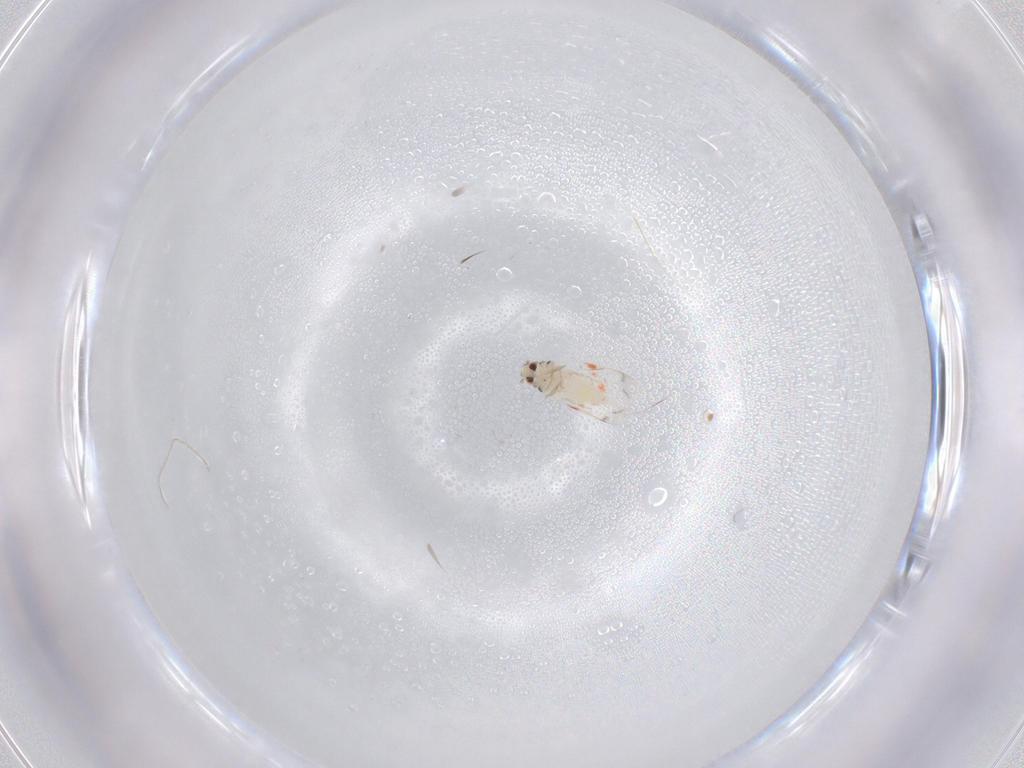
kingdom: Animalia
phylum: Arthropoda
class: Insecta
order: Hemiptera
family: Aleyrodidae
